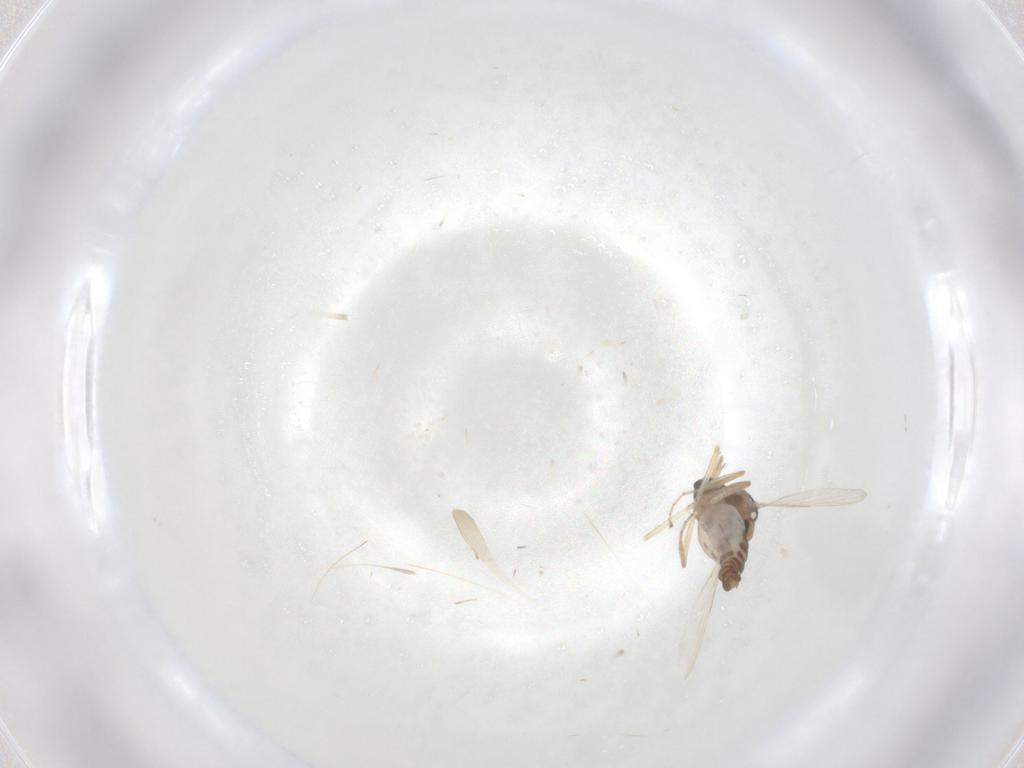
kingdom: Animalia
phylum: Arthropoda
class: Insecta
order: Diptera
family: Ceratopogonidae
